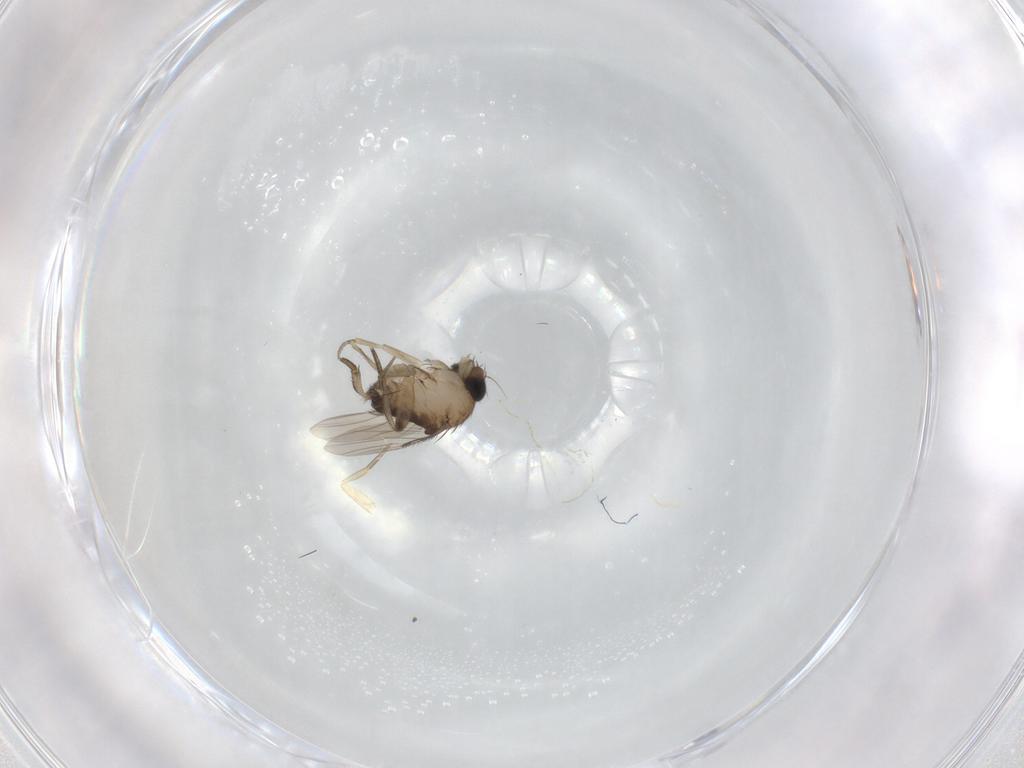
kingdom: Animalia
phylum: Arthropoda
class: Insecta
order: Diptera
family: Phoridae
